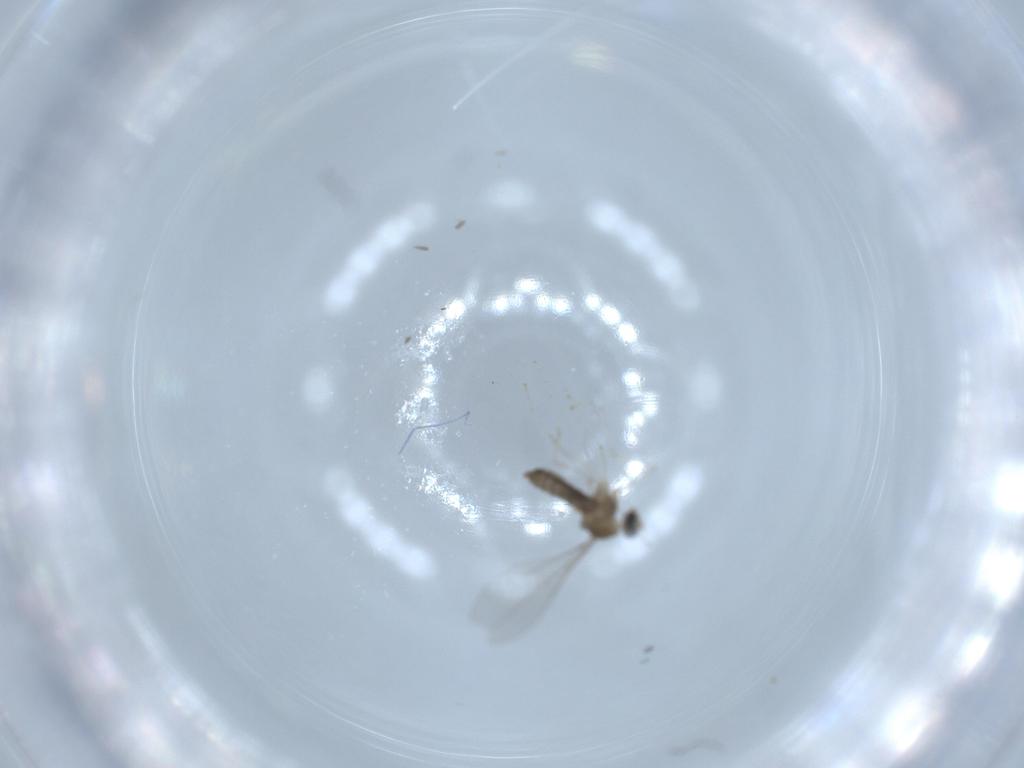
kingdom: Animalia
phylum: Arthropoda
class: Insecta
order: Diptera
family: Cecidomyiidae
